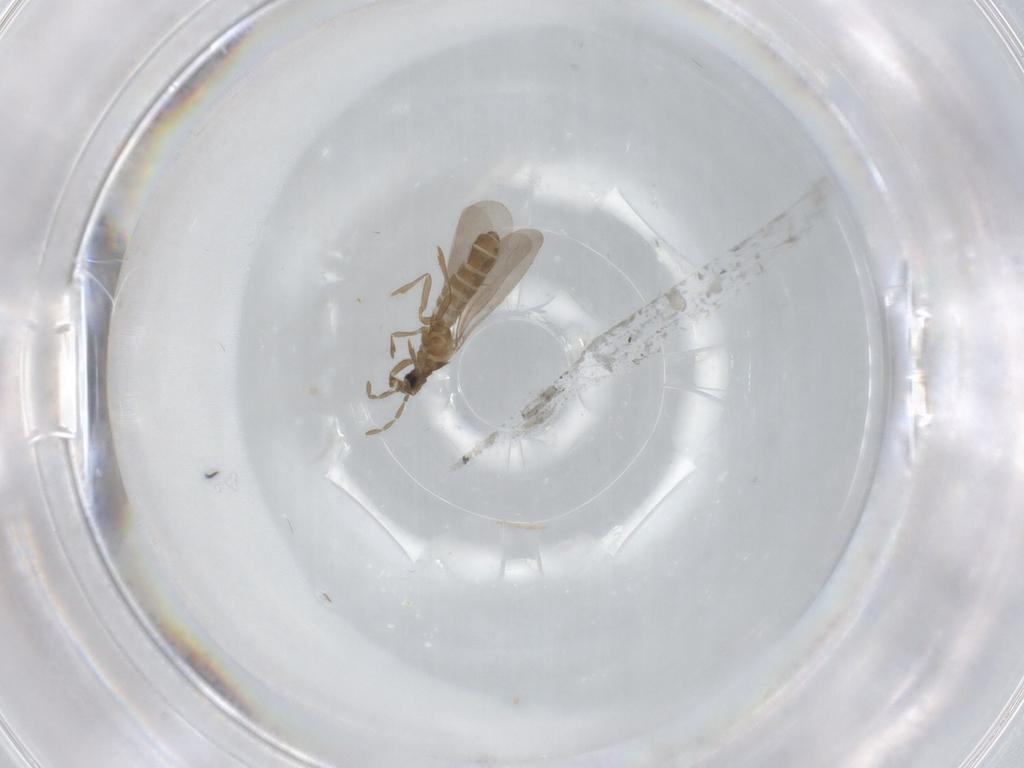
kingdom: Animalia
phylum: Arthropoda
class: Insecta
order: Hemiptera
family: Enicocephalidae
